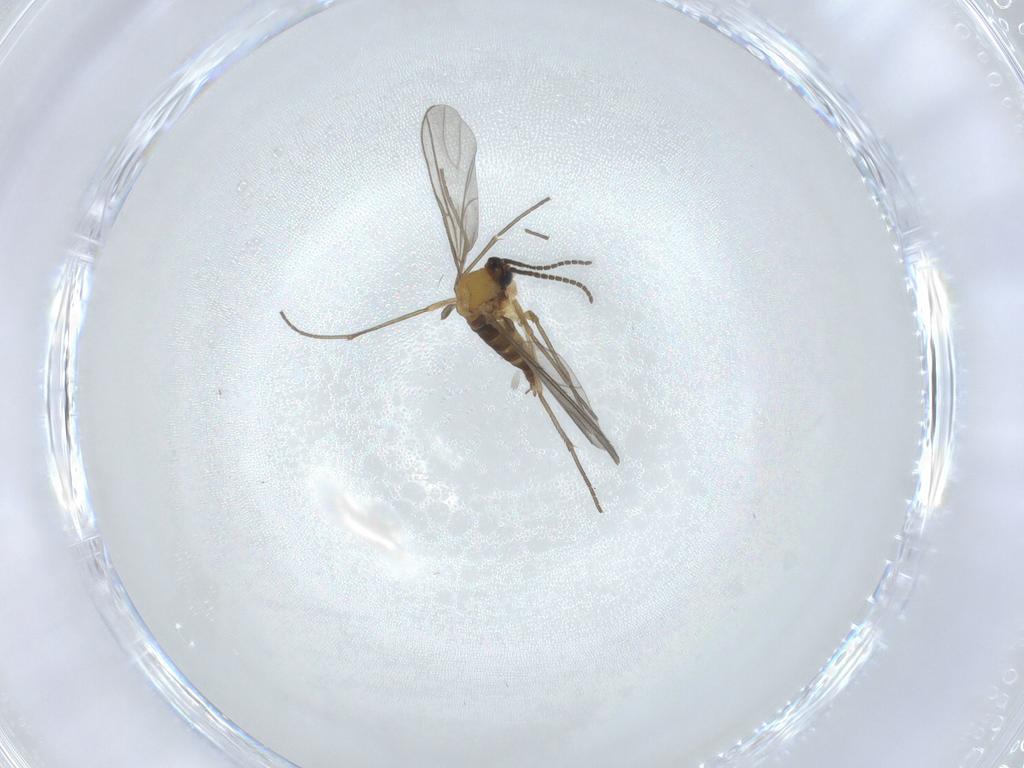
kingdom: Animalia
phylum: Arthropoda
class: Insecta
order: Diptera
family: Sciaridae
